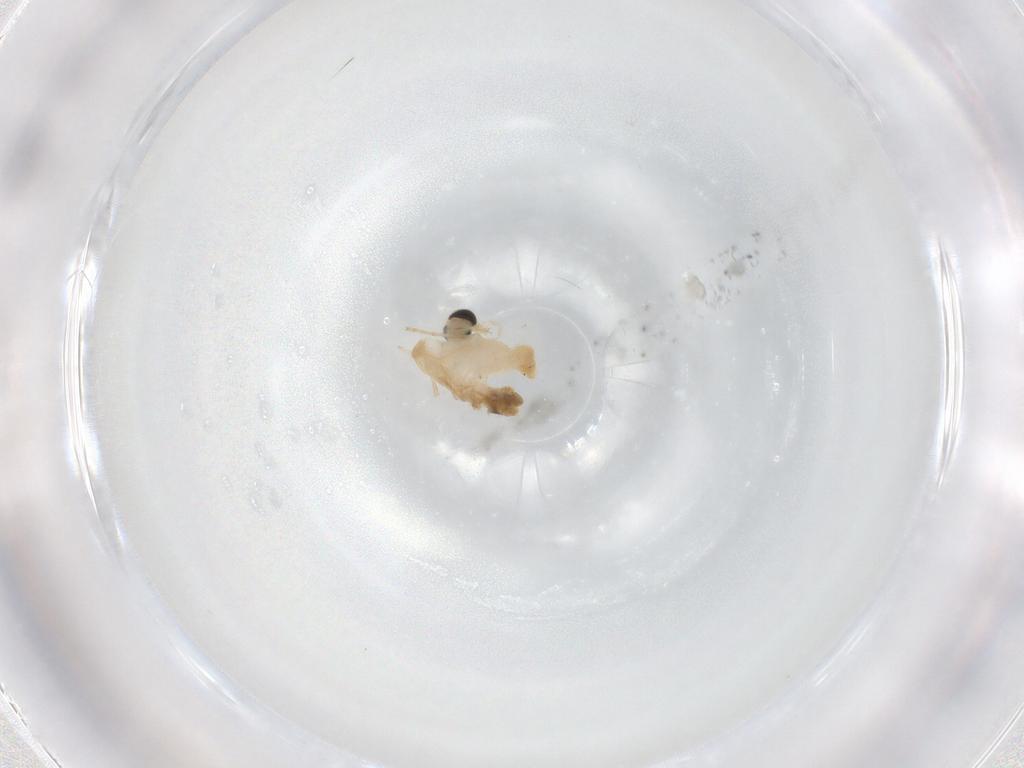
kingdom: Animalia
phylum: Arthropoda
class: Insecta
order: Diptera
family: Chironomidae
